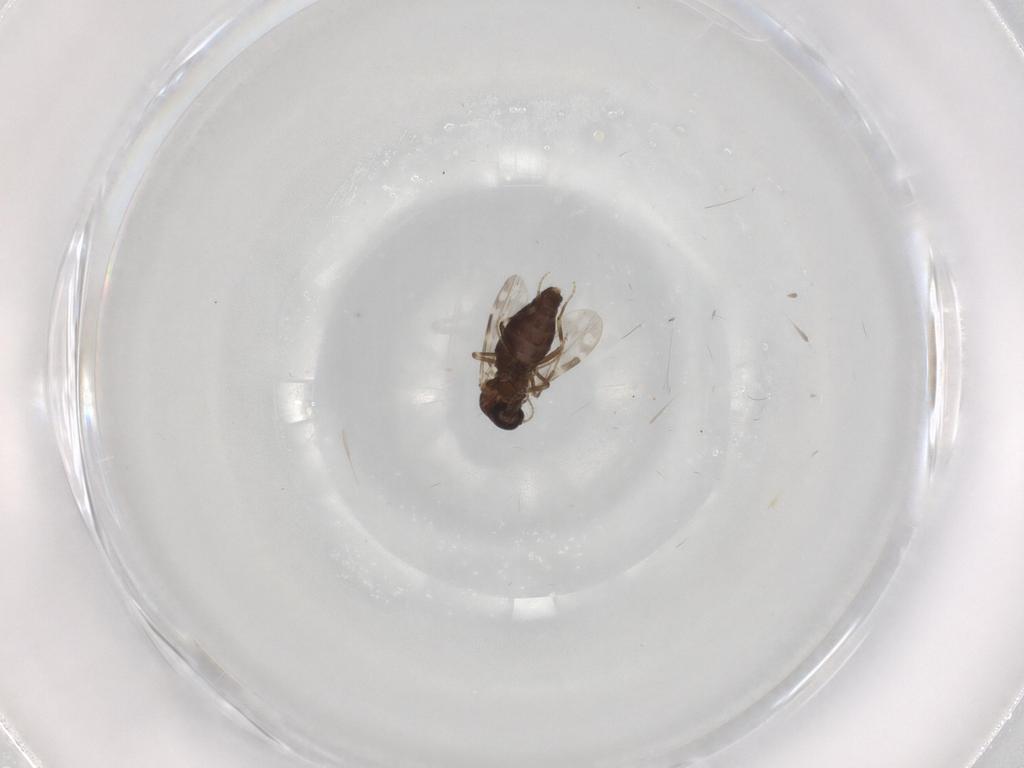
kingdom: Animalia
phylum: Arthropoda
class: Insecta
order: Diptera
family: Ceratopogonidae
